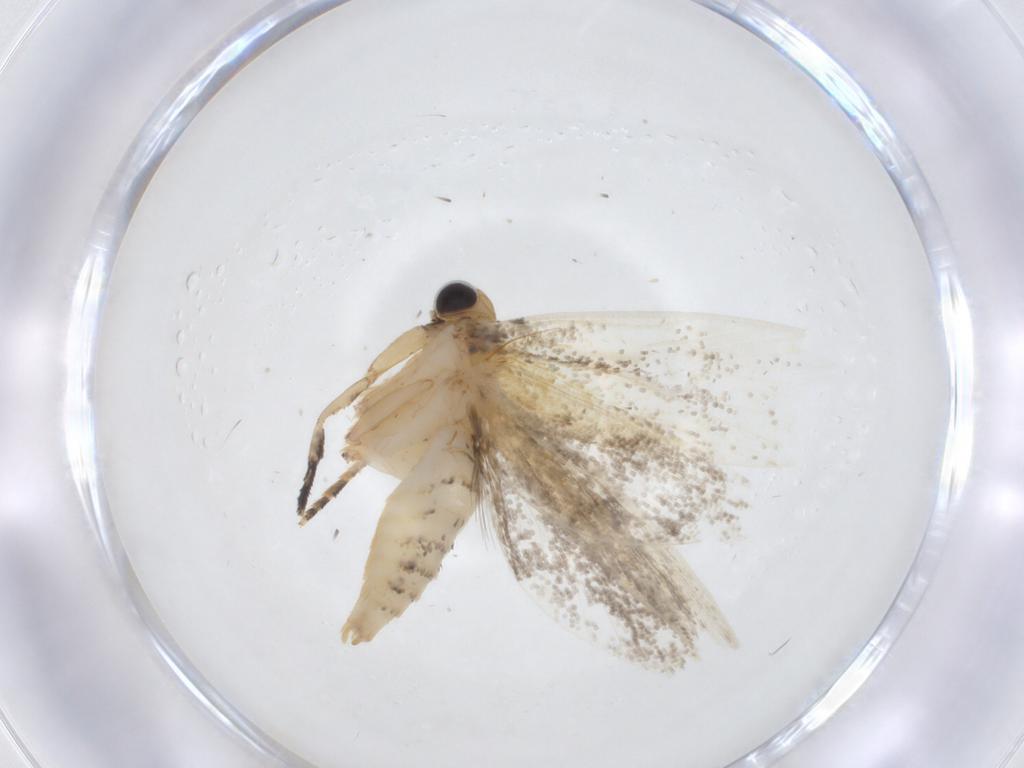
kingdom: Animalia
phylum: Arthropoda
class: Insecta
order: Lepidoptera
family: Tineidae
